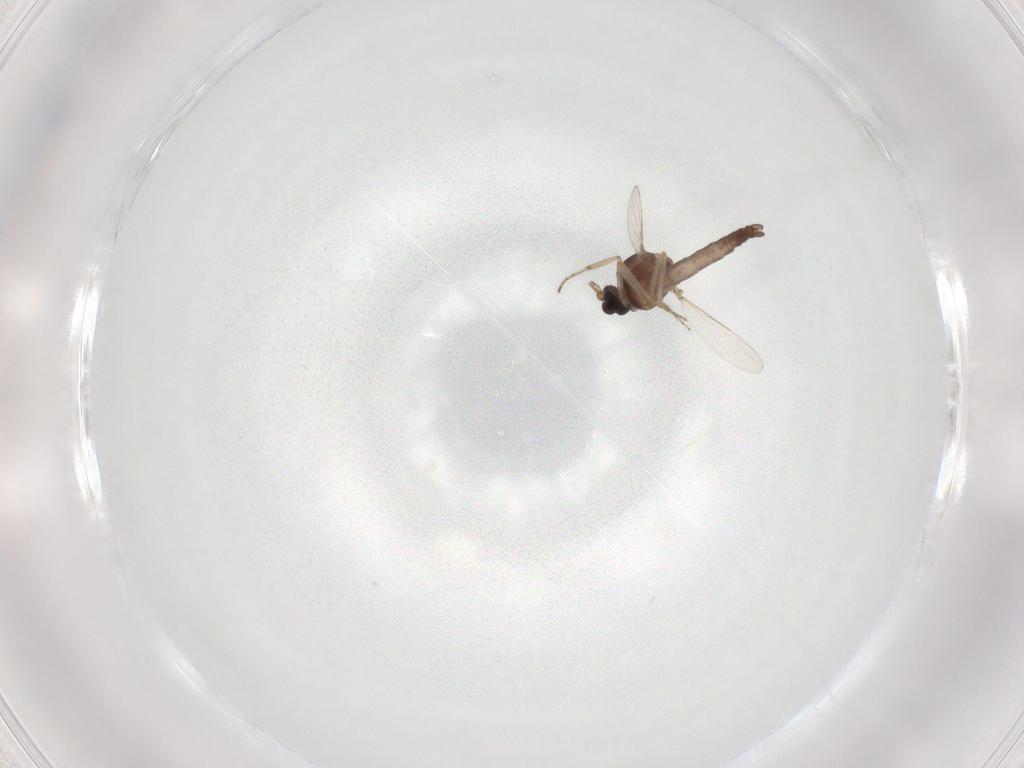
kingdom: Animalia
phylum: Arthropoda
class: Insecta
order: Diptera
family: Ceratopogonidae
